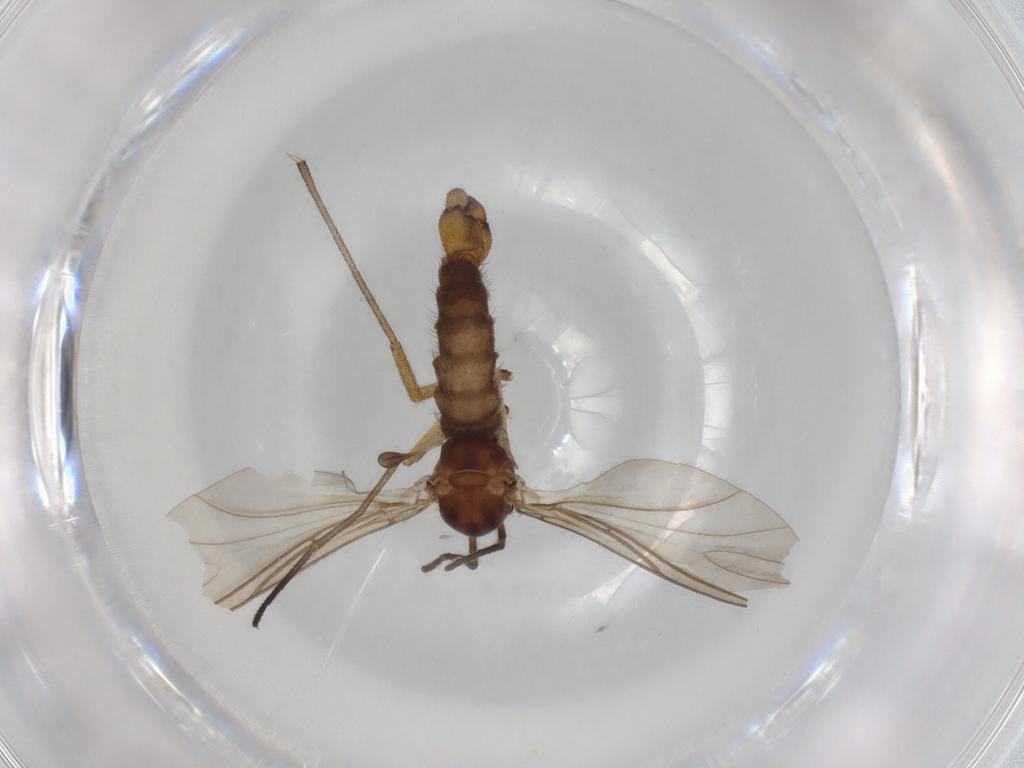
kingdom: Animalia
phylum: Arthropoda
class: Insecta
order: Diptera
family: Sciaridae
